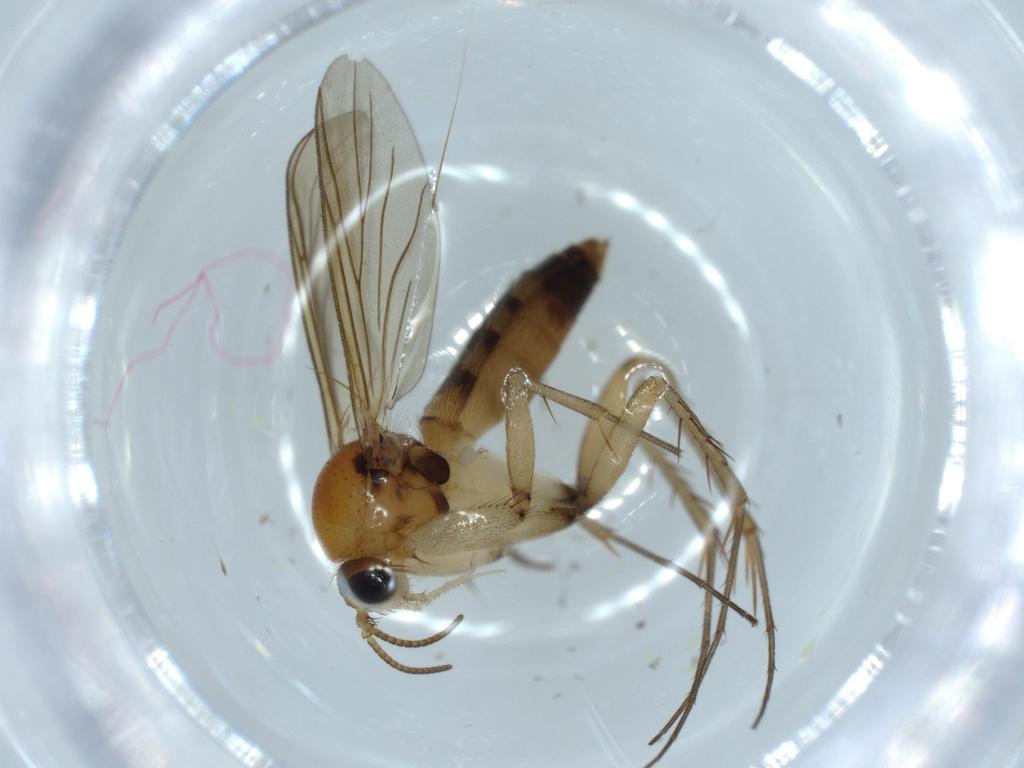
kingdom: Animalia
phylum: Arthropoda
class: Insecta
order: Diptera
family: Mycetophilidae
